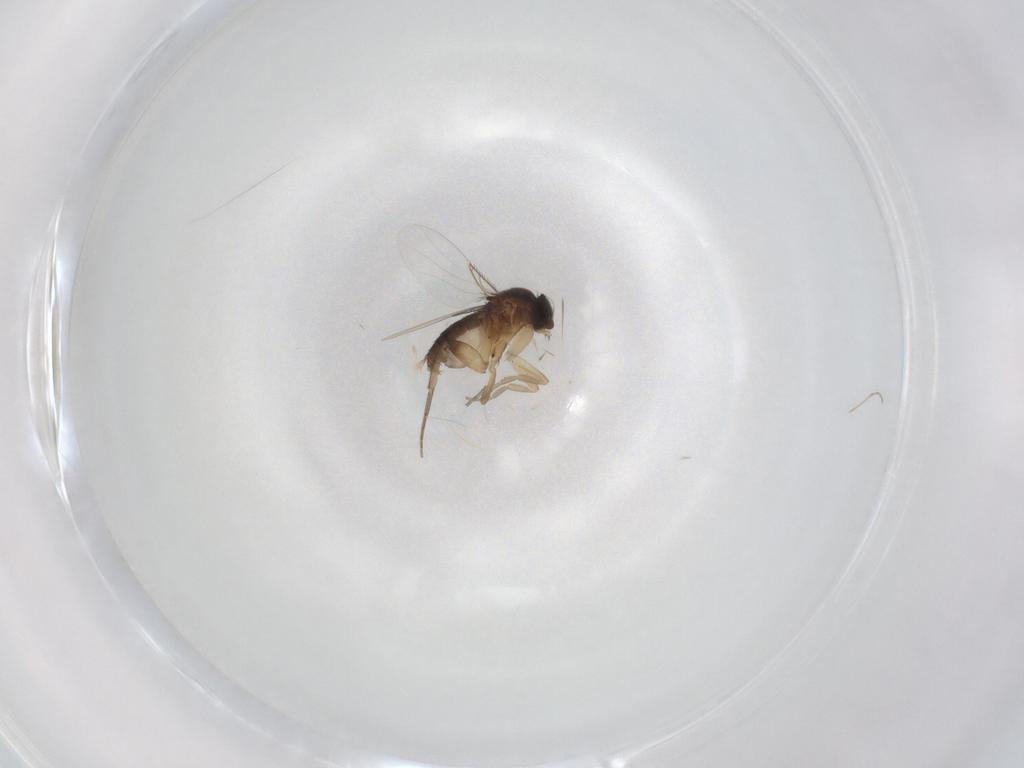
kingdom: Animalia
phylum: Arthropoda
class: Insecta
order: Diptera
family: Phoridae
